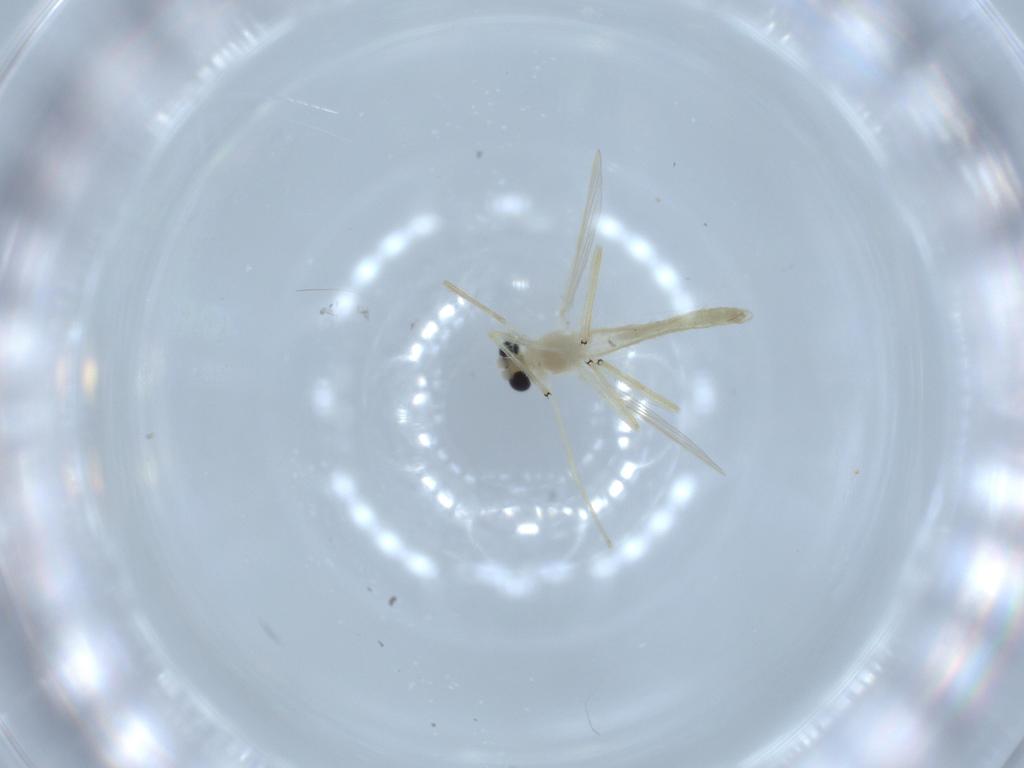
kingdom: Animalia
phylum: Arthropoda
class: Insecta
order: Diptera
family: Chironomidae
